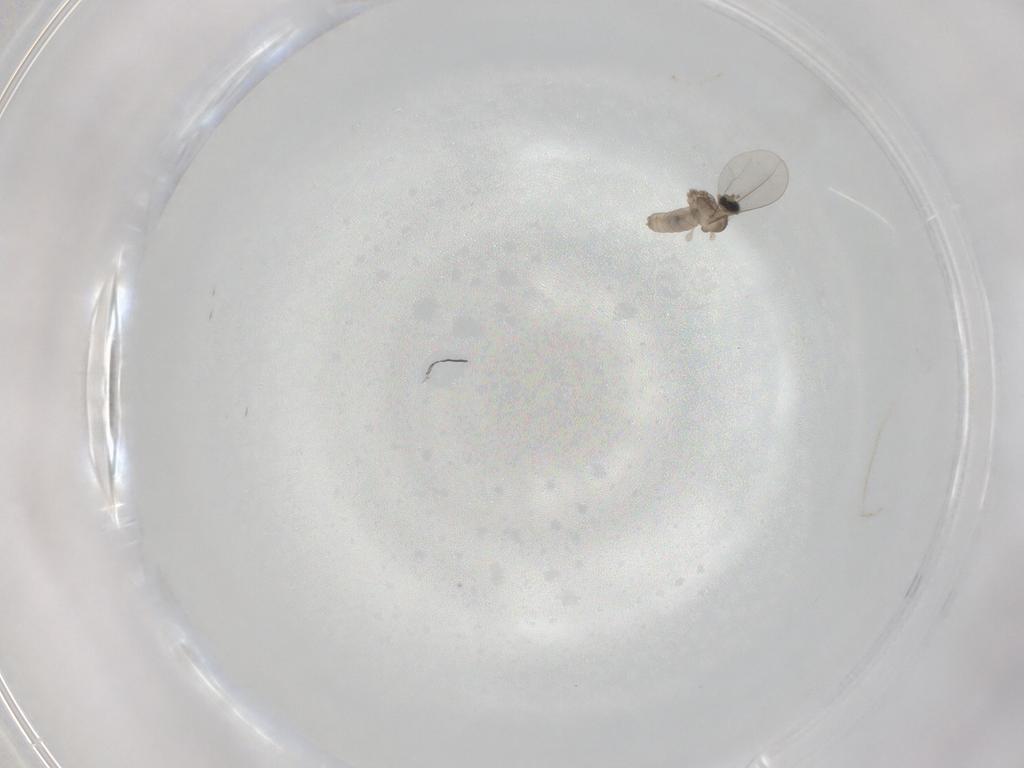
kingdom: Animalia
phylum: Arthropoda
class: Insecta
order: Diptera
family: Cecidomyiidae
